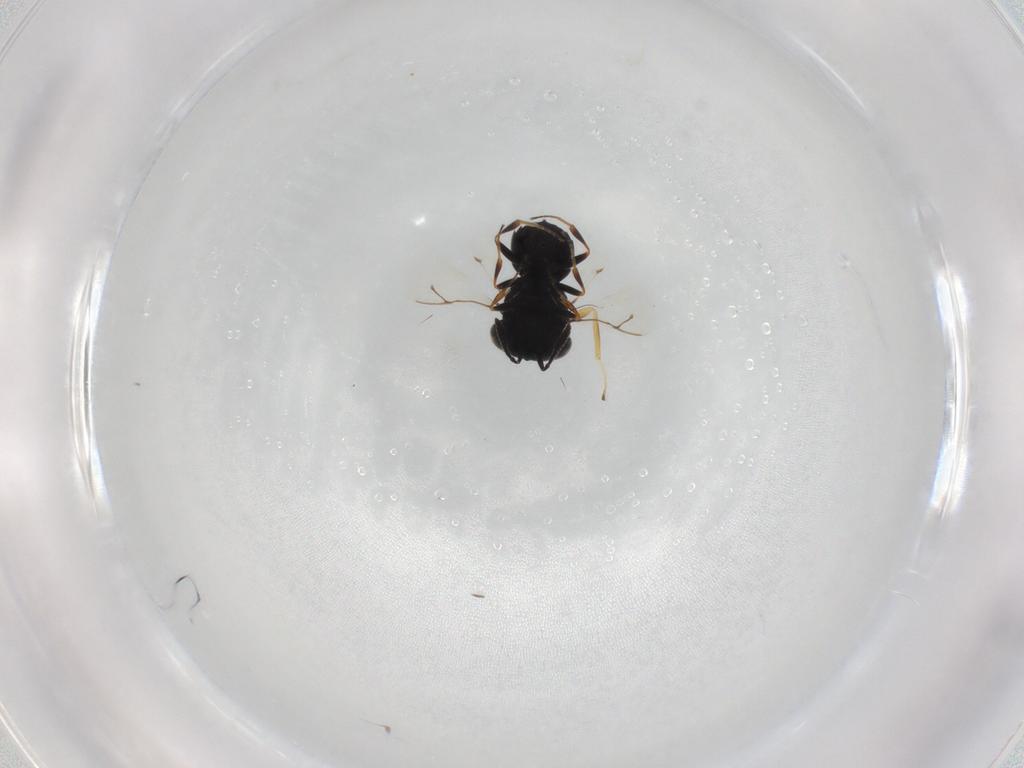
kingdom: Animalia
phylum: Arthropoda
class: Insecta
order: Hymenoptera
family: Scelionidae
